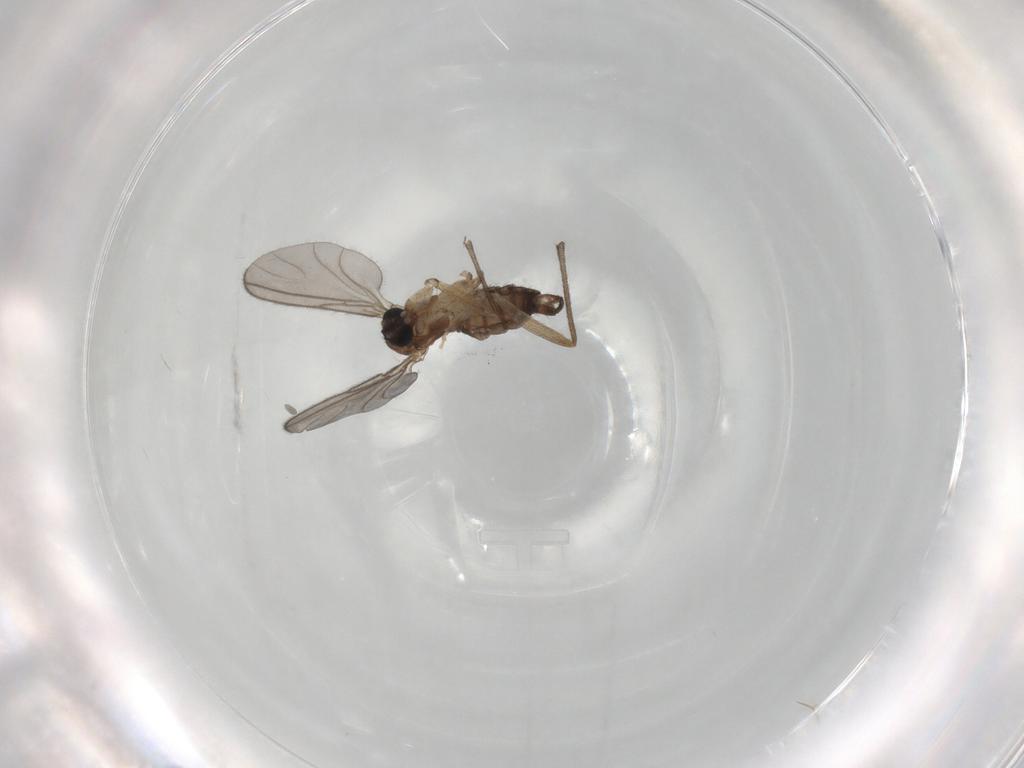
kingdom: Animalia
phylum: Arthropoda
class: Insecta
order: Diptera
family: Sciaridae
